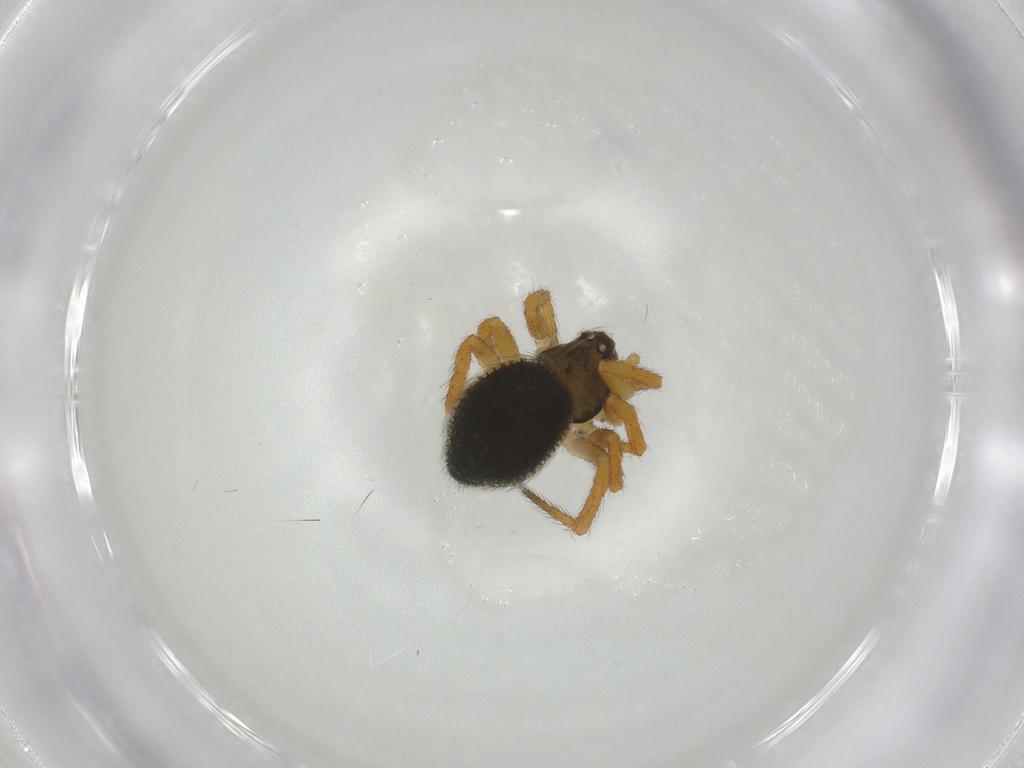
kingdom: Animalia
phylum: Arthropoda
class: Arachnida
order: Araneae
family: Theridiidae
